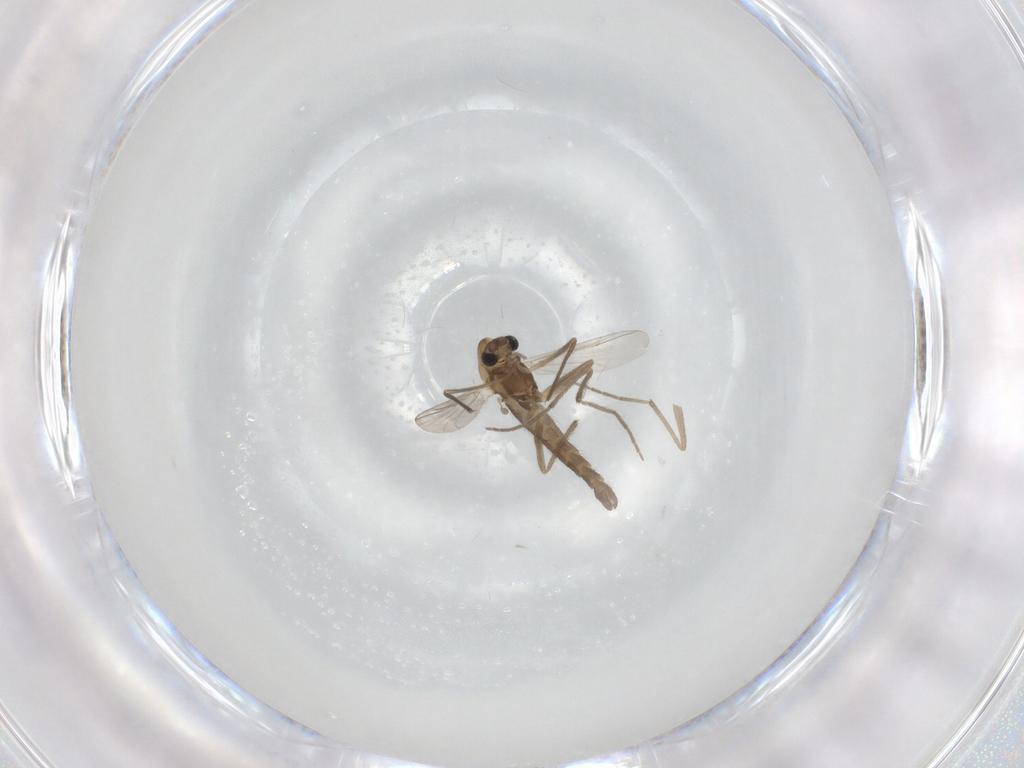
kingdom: Animalia
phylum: Arthropoda
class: Insecta
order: Diptera
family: Chironomidae
